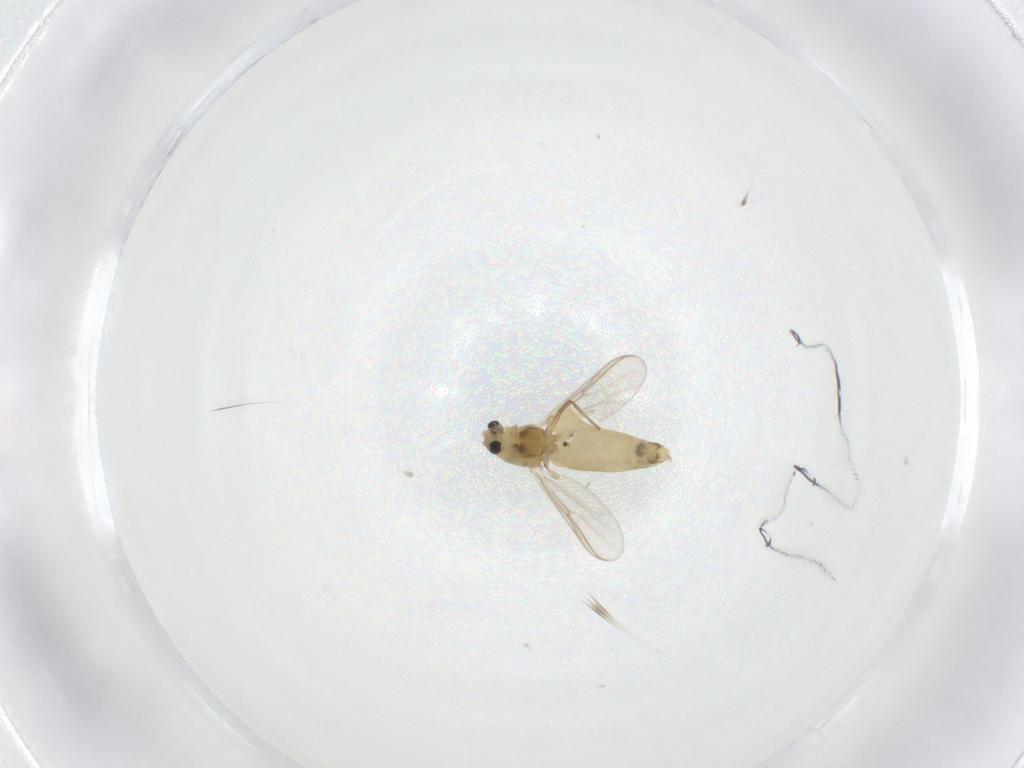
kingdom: Animalia
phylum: Arthropoda
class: Insecta
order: Diptera
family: Chironomidae
